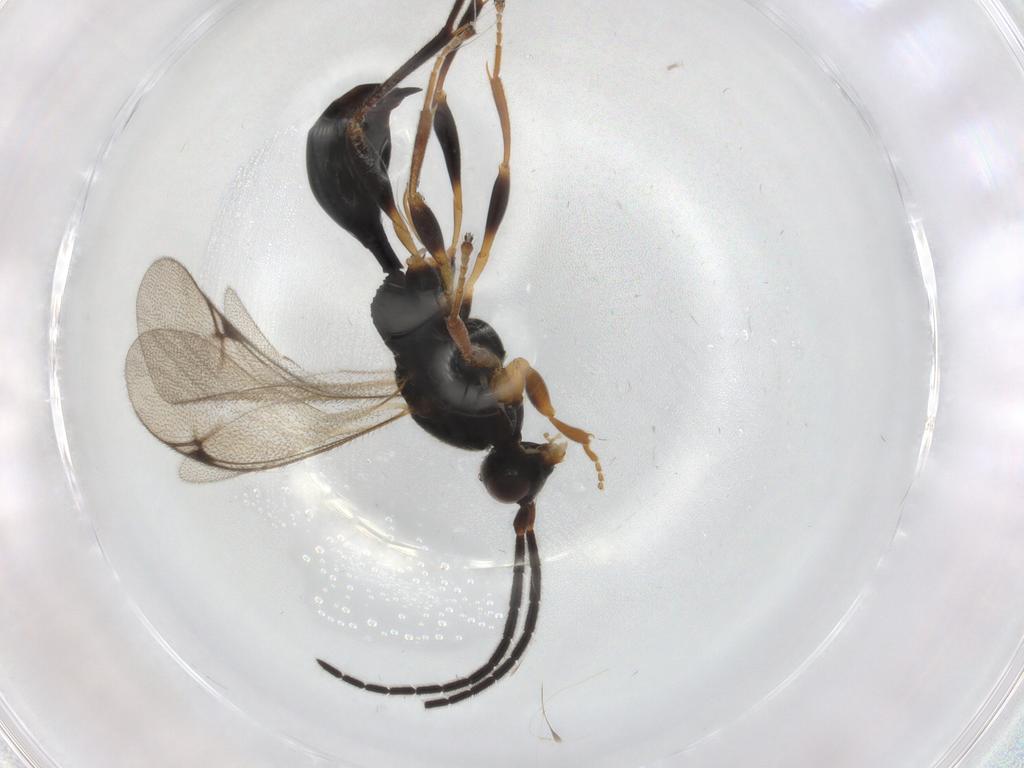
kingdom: Animalia
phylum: Arthropoda
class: Insecta
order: Hymenoptera
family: Proctotrupidae
